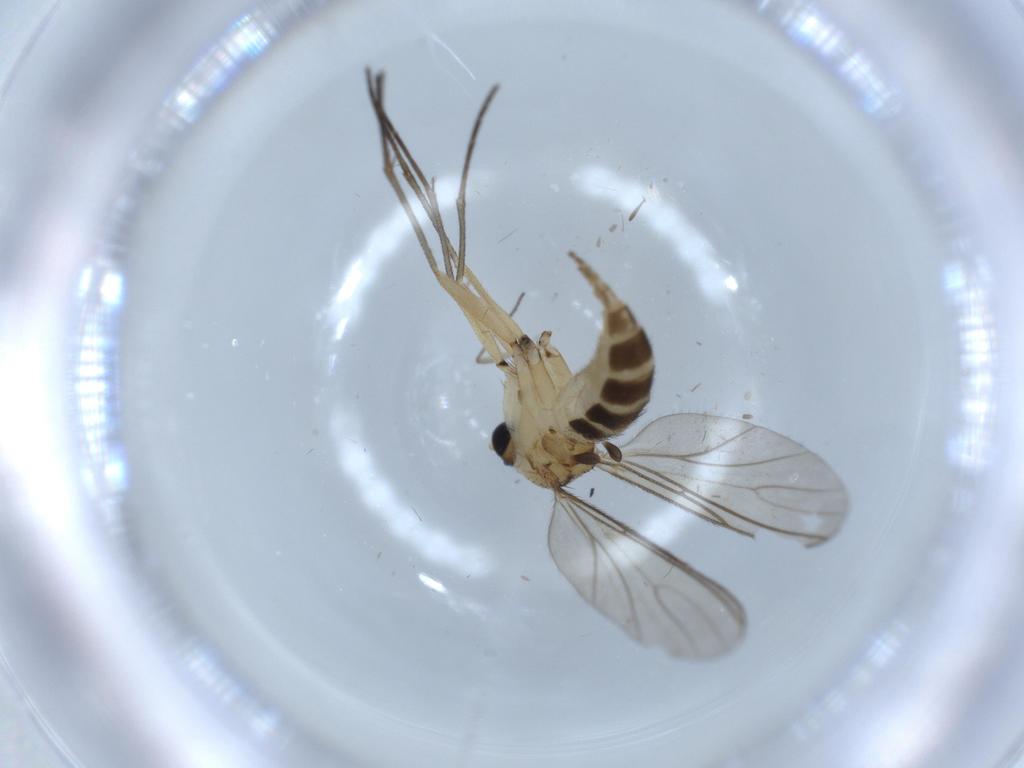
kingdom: Animalia
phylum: Arthropoda
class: Insecta
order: Diptera
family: Sciaridae
